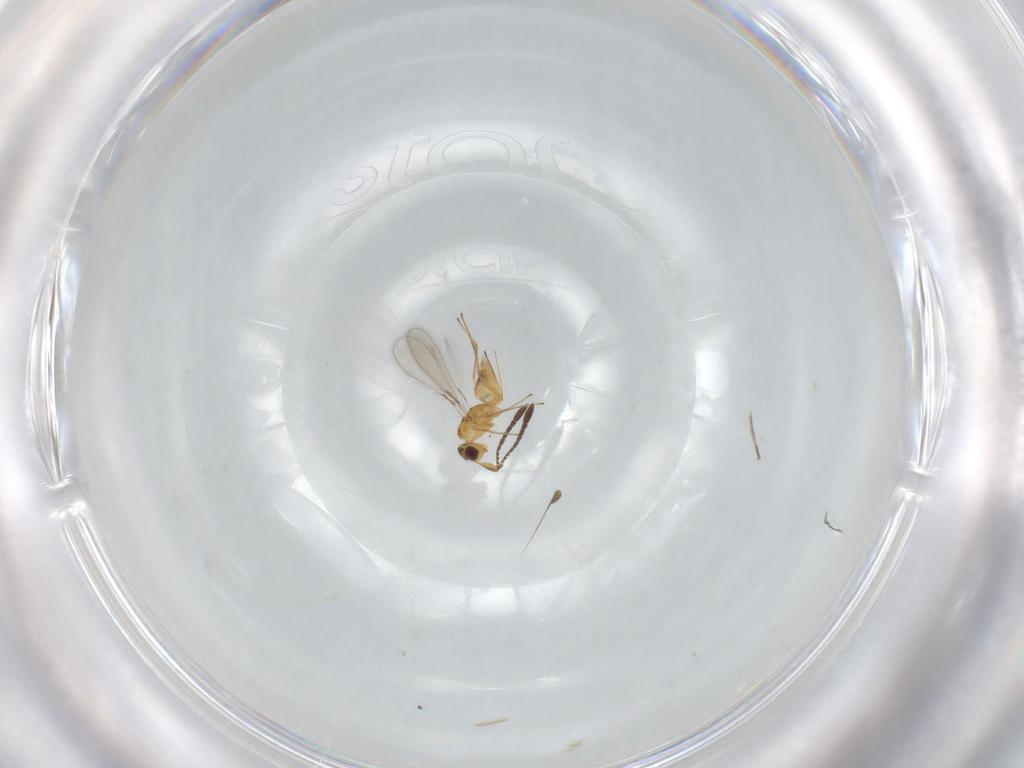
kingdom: Animalia
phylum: Arthropoda
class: Insecta
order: Hymenoptera
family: Mymaridae
